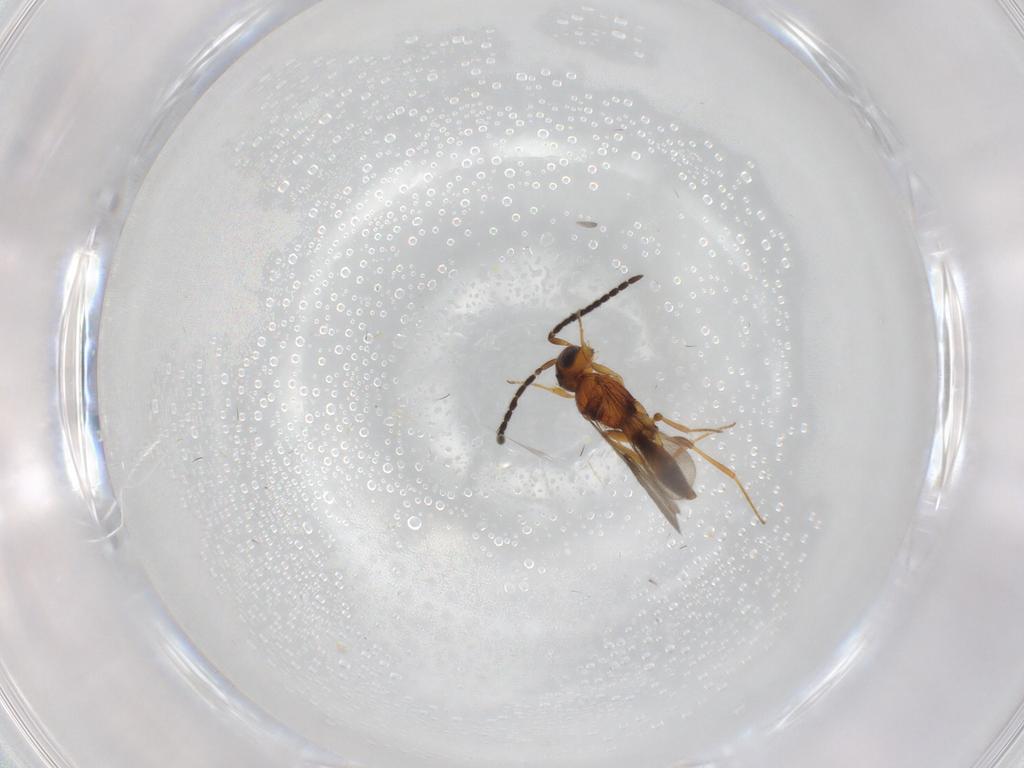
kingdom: Animalia
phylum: Arthropoda
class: Insecta
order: Hymenoptera
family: Scelionidae
